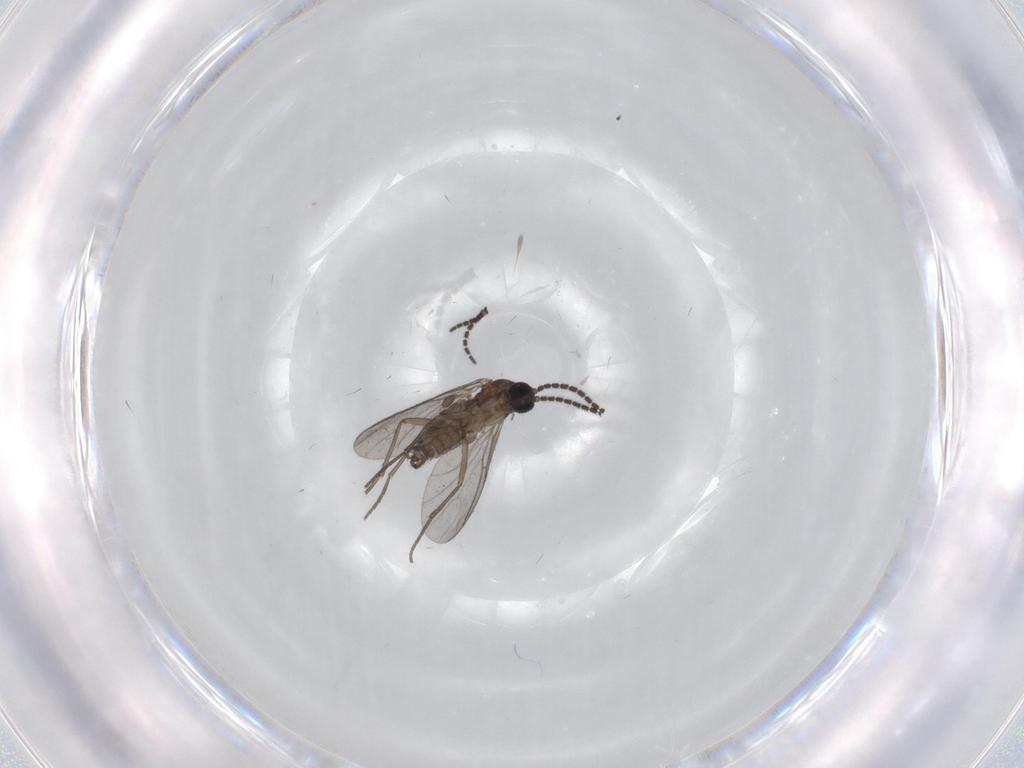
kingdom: Animalia
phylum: Arthropoda
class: Insecta
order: Diptera
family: Sciaridae
